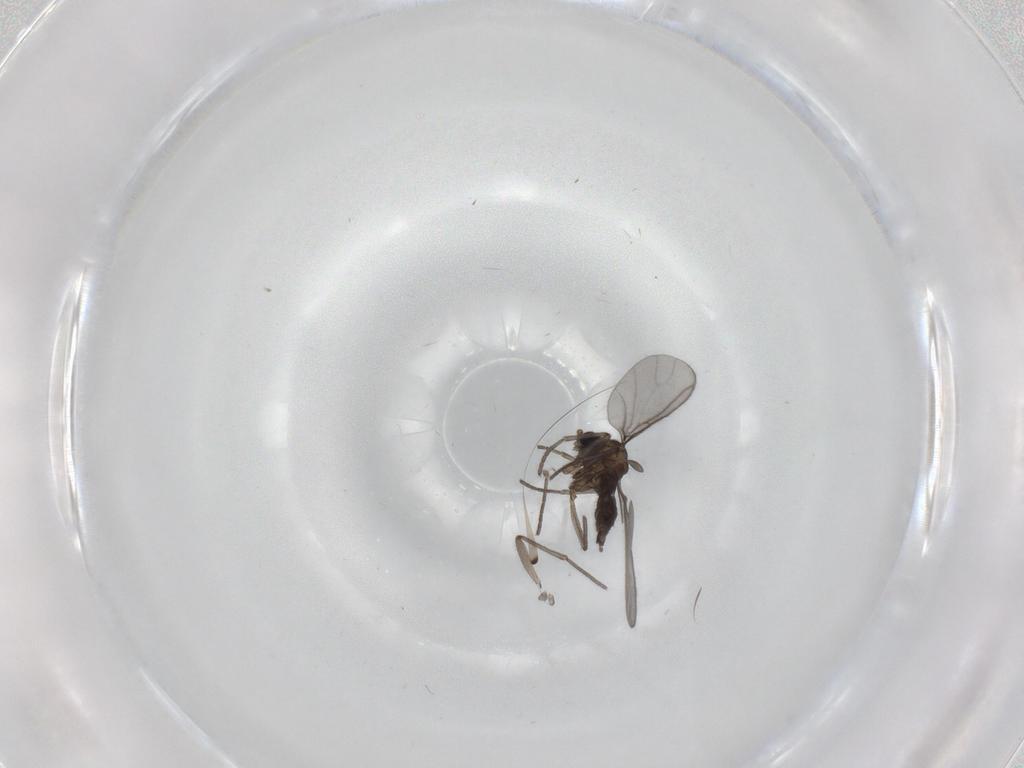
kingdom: Animalia
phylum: Arthropoda
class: Insecta
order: Diptera
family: Sciaridae
